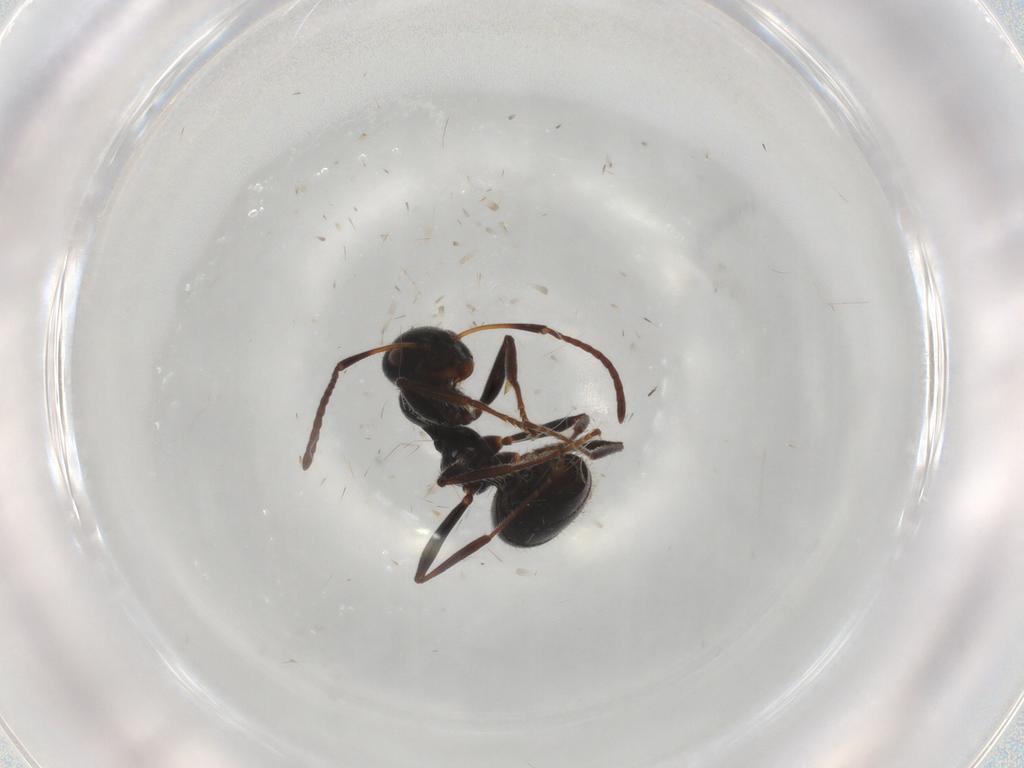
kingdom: Animalia
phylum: Arthropoda
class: Insecta
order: Hymenoptera
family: Formicidae
